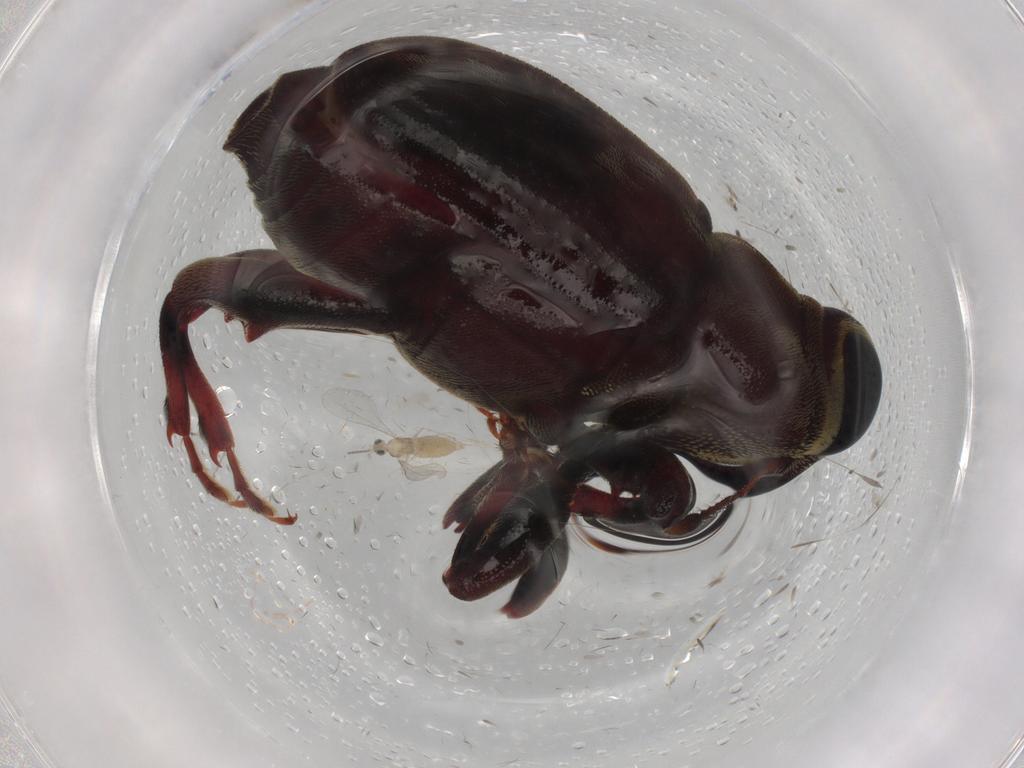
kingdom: Animalia
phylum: Arthropoda
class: Insecta
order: Coleoptera
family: Curculionidae
